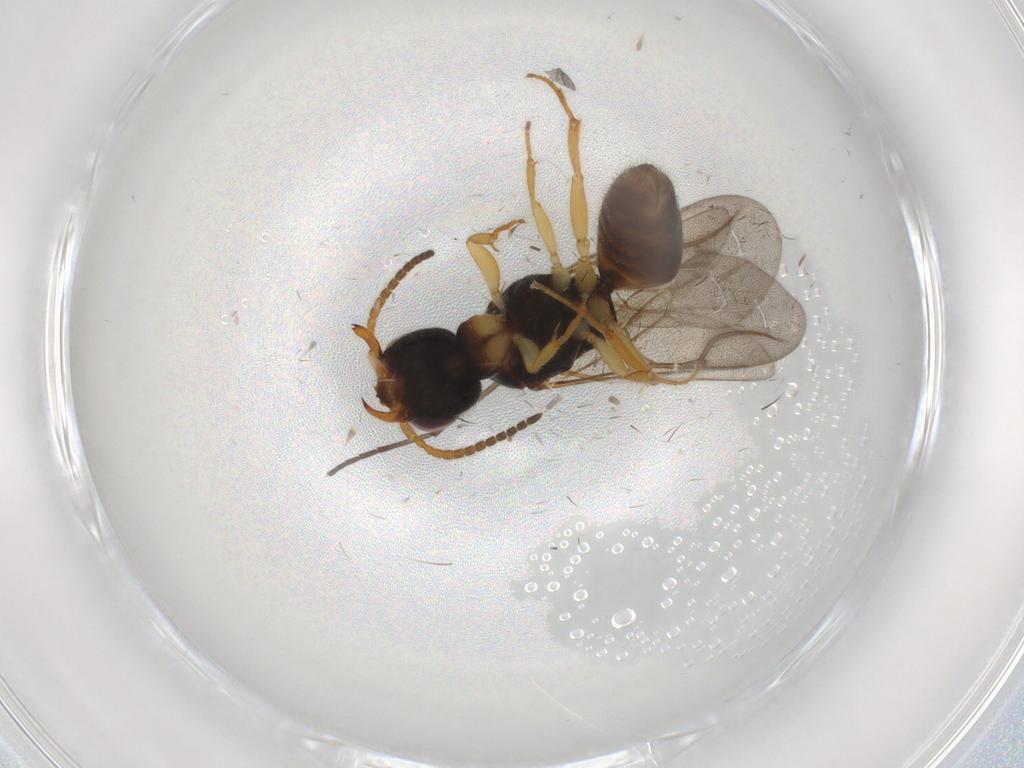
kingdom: Animalia
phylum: Arthropoda
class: Insecta
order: Hymenoptera
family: Bethylidae
